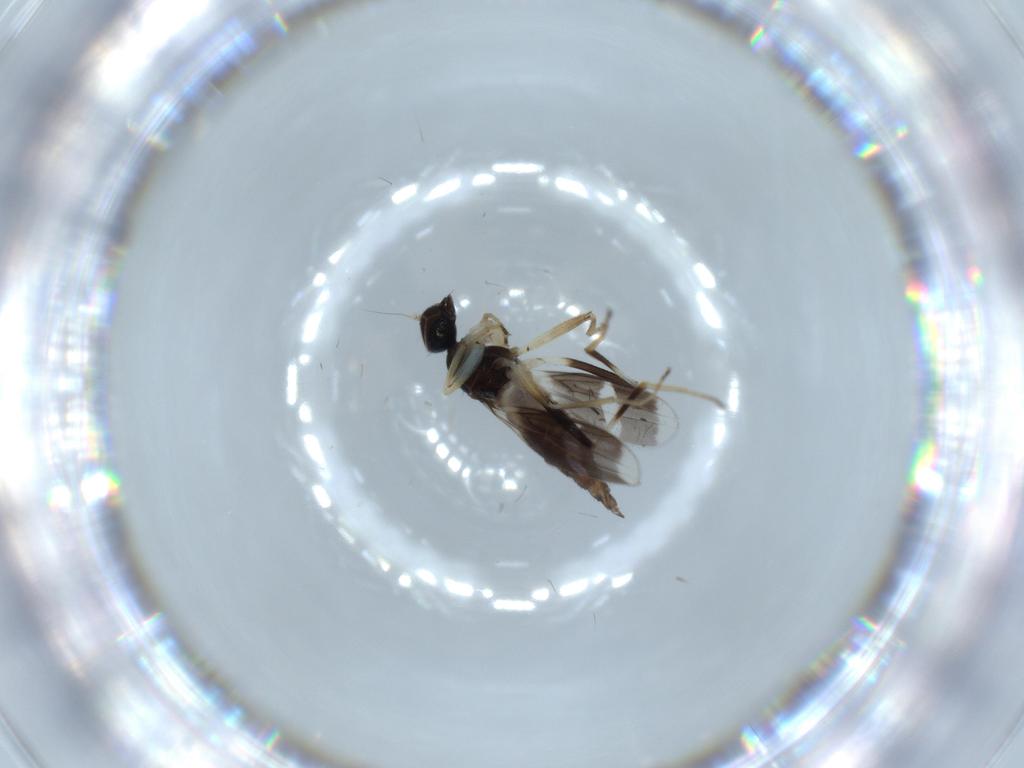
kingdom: Animalia
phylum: Arthropoda
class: Insecta
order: Diptera
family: Hybotidae
